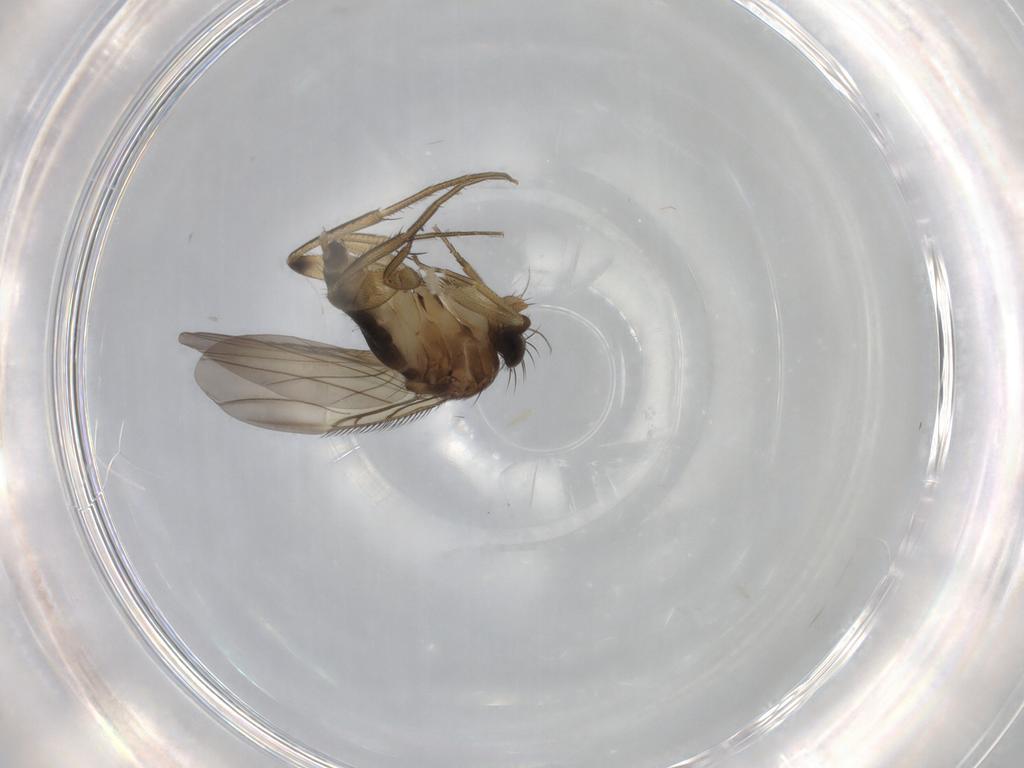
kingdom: Animalia
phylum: Arthropoda
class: Insecta
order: Diptera
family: Phoridae
